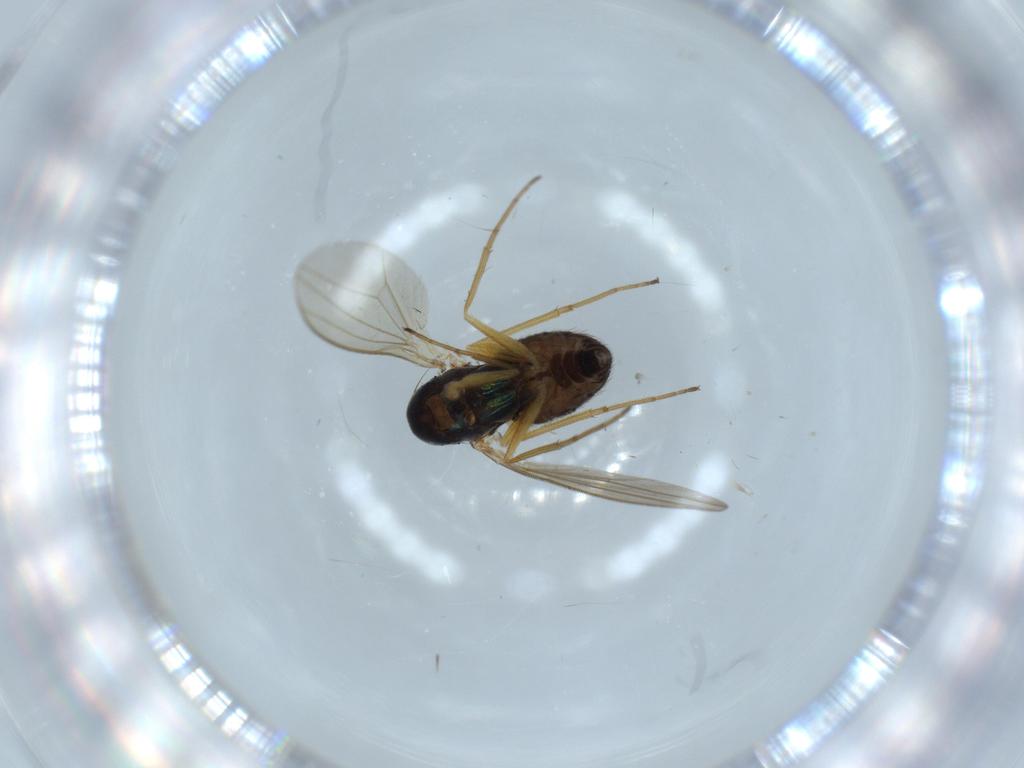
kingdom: Animalia
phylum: Arthropoda
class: Insecta
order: Diptera
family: Dolichopodidae
